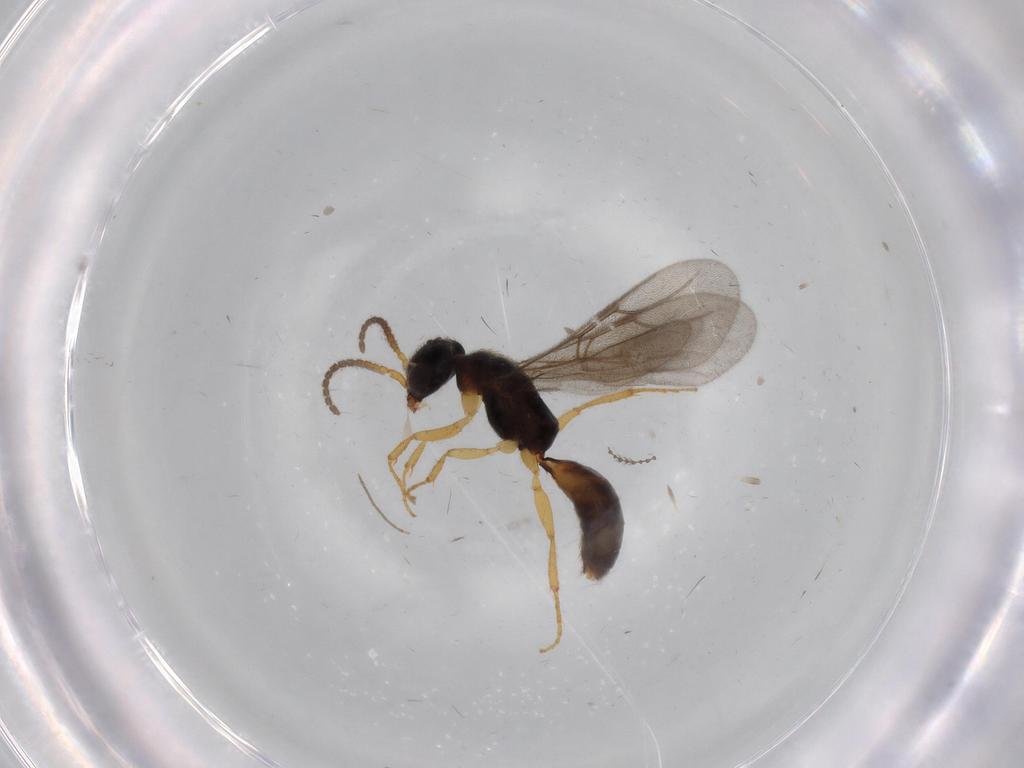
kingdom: Animalia
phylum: Arthropoda
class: Insecta
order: Hymenoptera
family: Bethylidae
